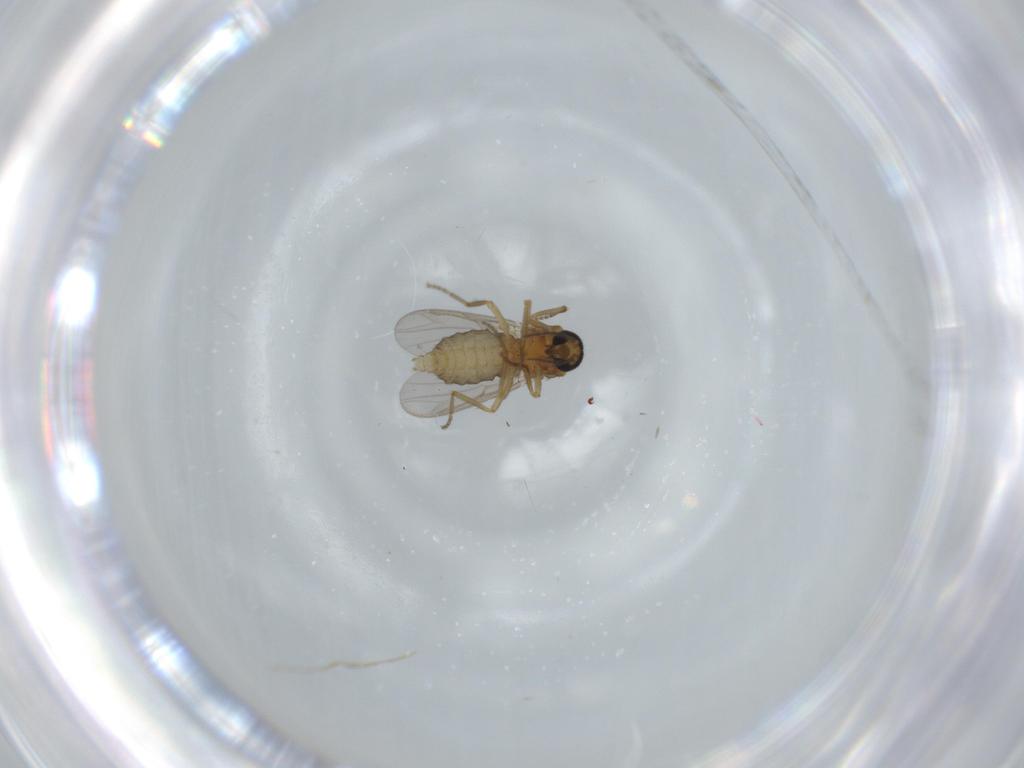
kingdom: Animalia
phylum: Arthropoda
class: Insecta
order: Diptera
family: Ceratopogonidae
